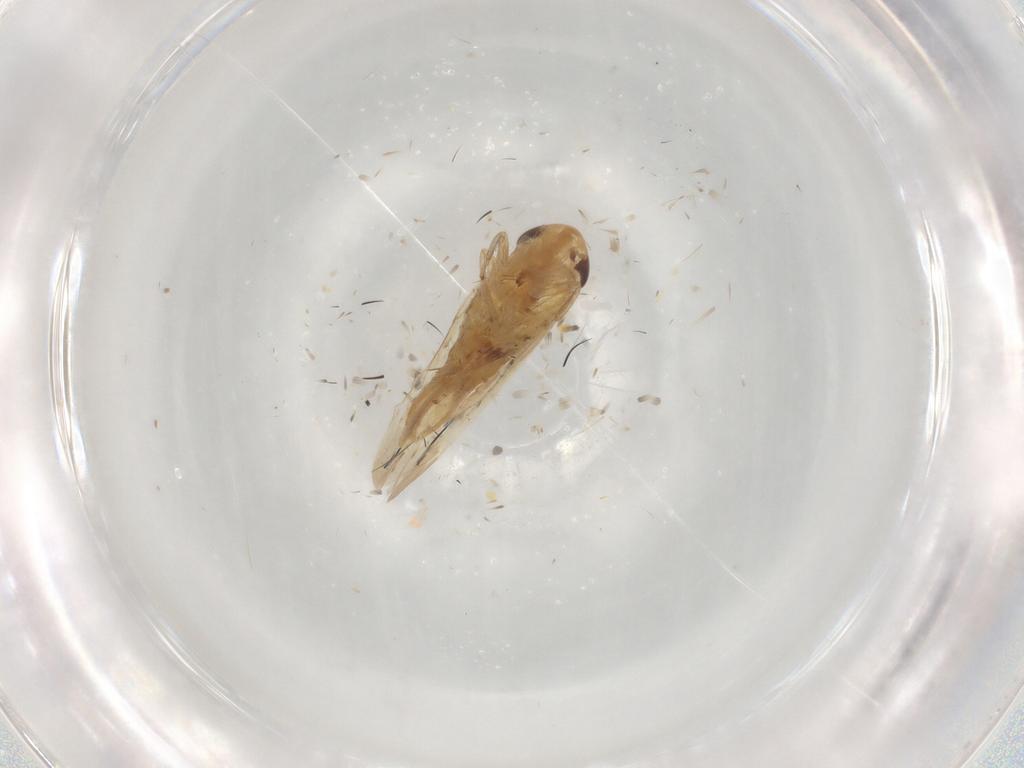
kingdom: Animalia
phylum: Arthropoda
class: Insecta
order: Hemiptera
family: Cicadellidae
